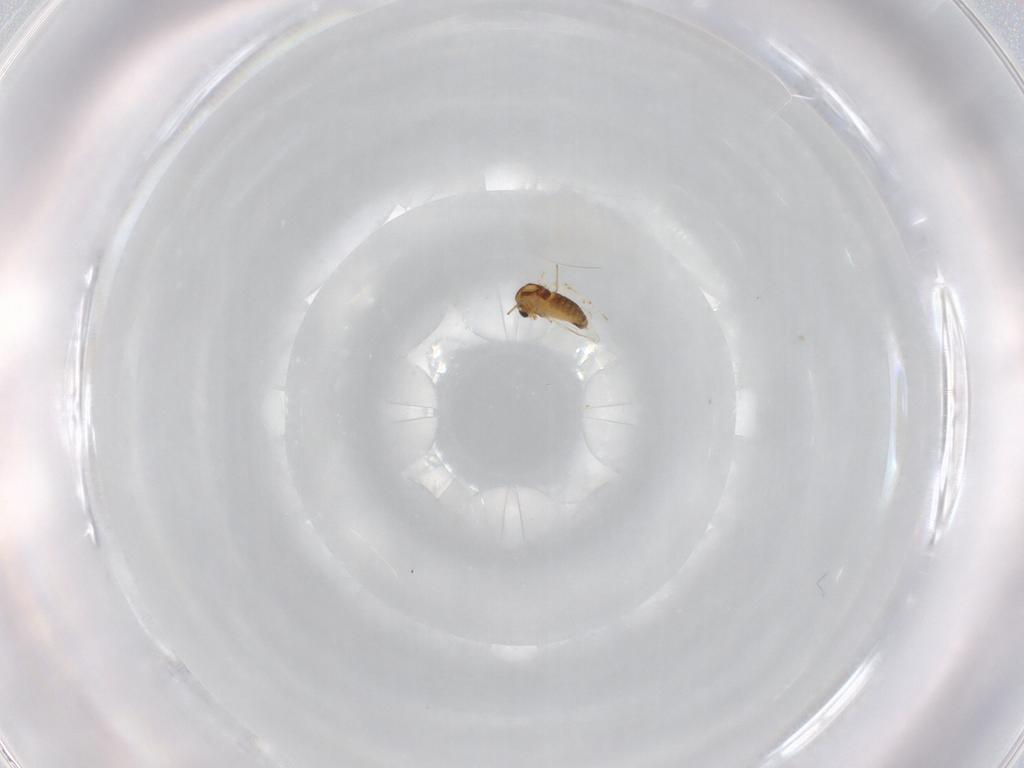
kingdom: Animalia
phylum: Arthropoda
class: Insecta
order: Diptera
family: Chironomidae
